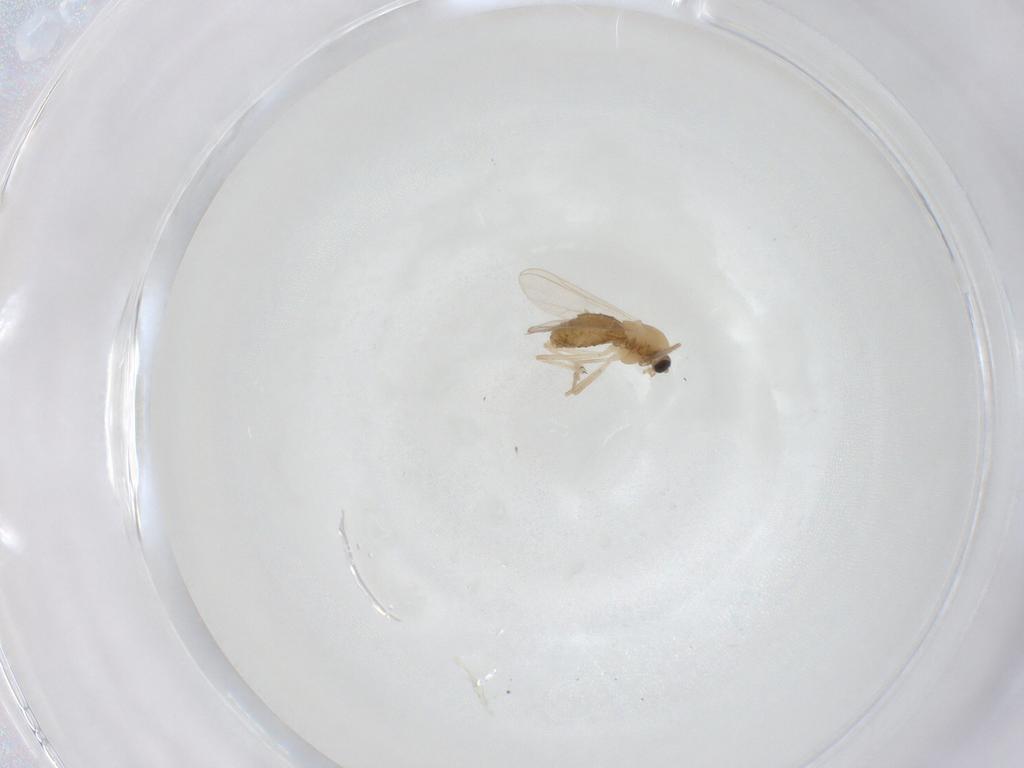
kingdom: Animalia
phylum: Arthropoda
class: Insecta
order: Diptera
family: Chironomidae
